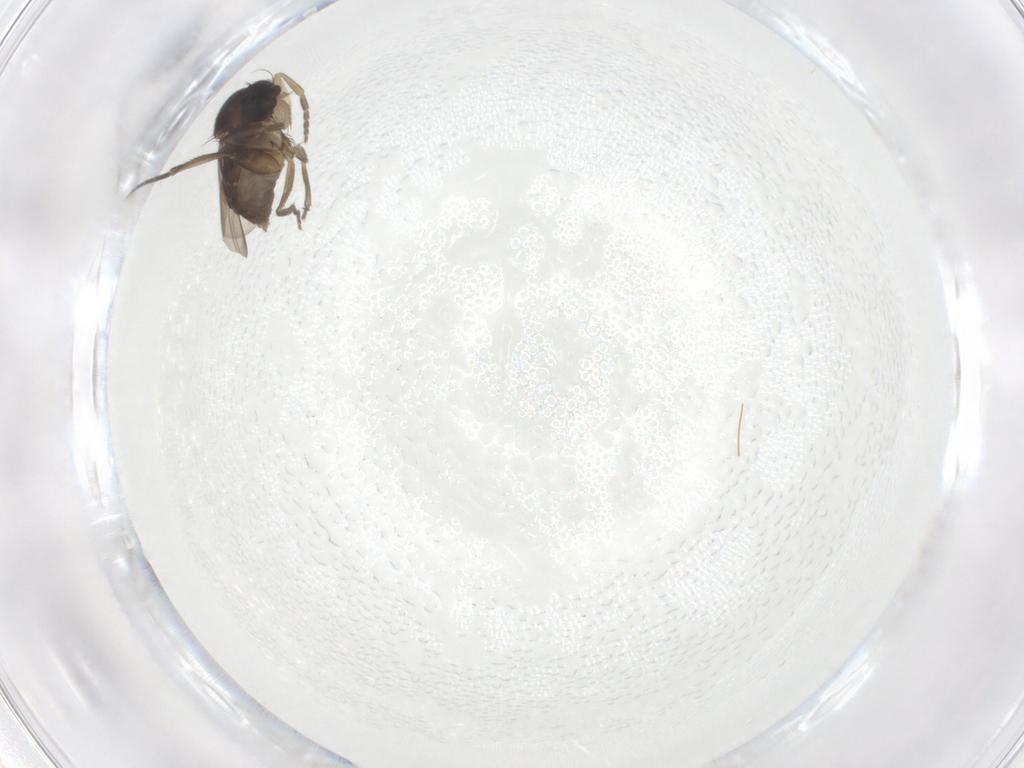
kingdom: Animalia
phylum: Arthropoda
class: Insecta
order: Diptera
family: Phoridae
